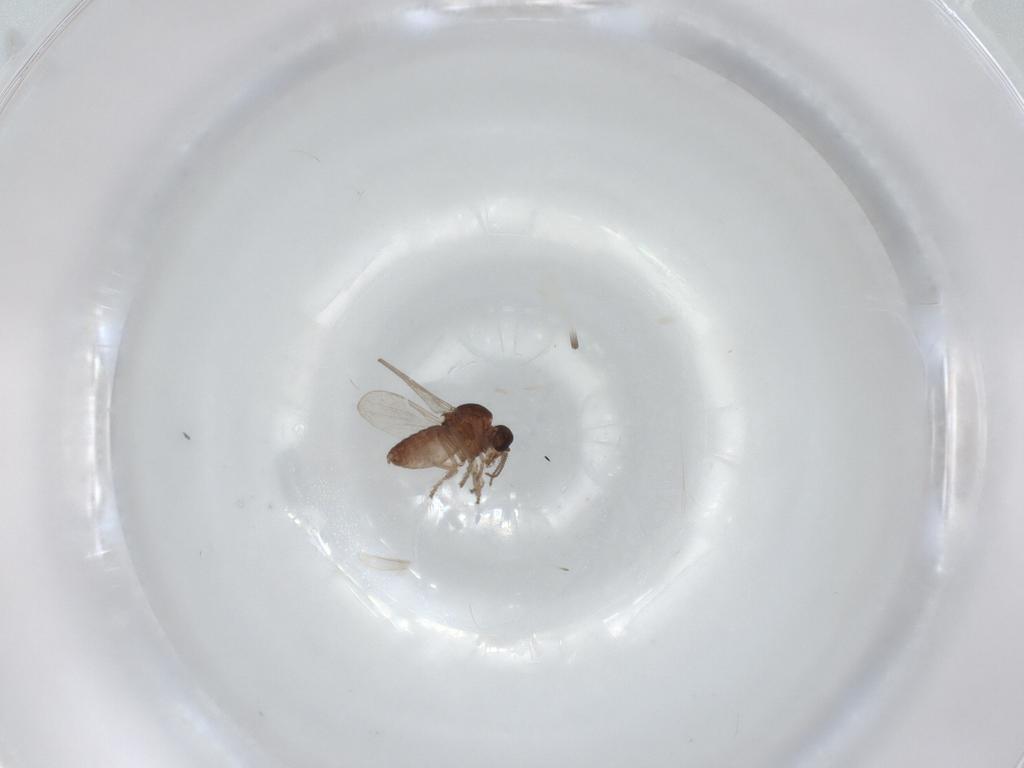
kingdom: Animalia
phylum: Arthropoda
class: Insecta
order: Diptera
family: Ceratopogonidae
